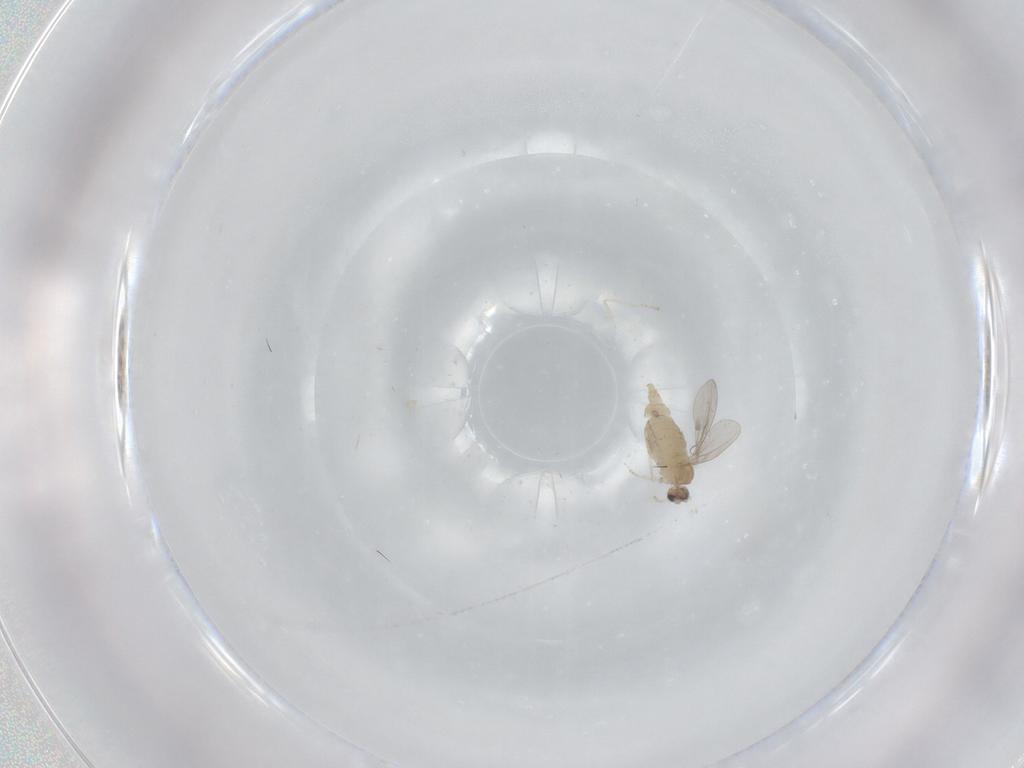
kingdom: Animalia
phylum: Arthropoda
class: Insecta
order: Diptera
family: Cecidomyiidae
